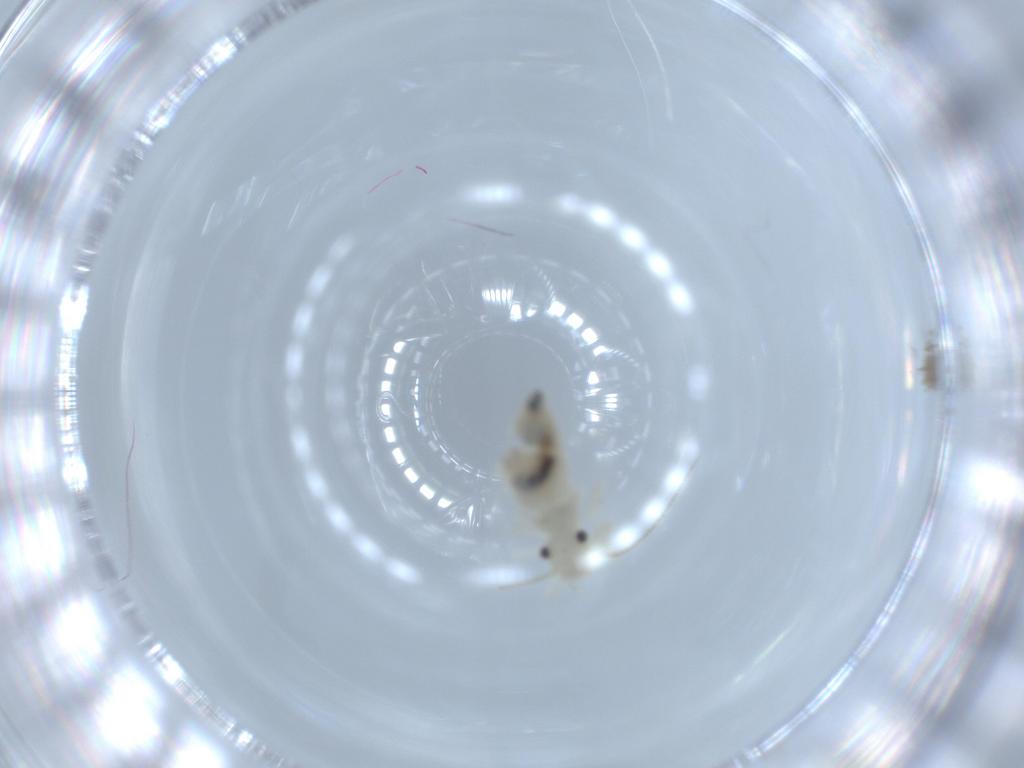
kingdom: Animalia
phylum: Arthropoda
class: Insecta
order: Psocodea
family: Caeciliusidae
